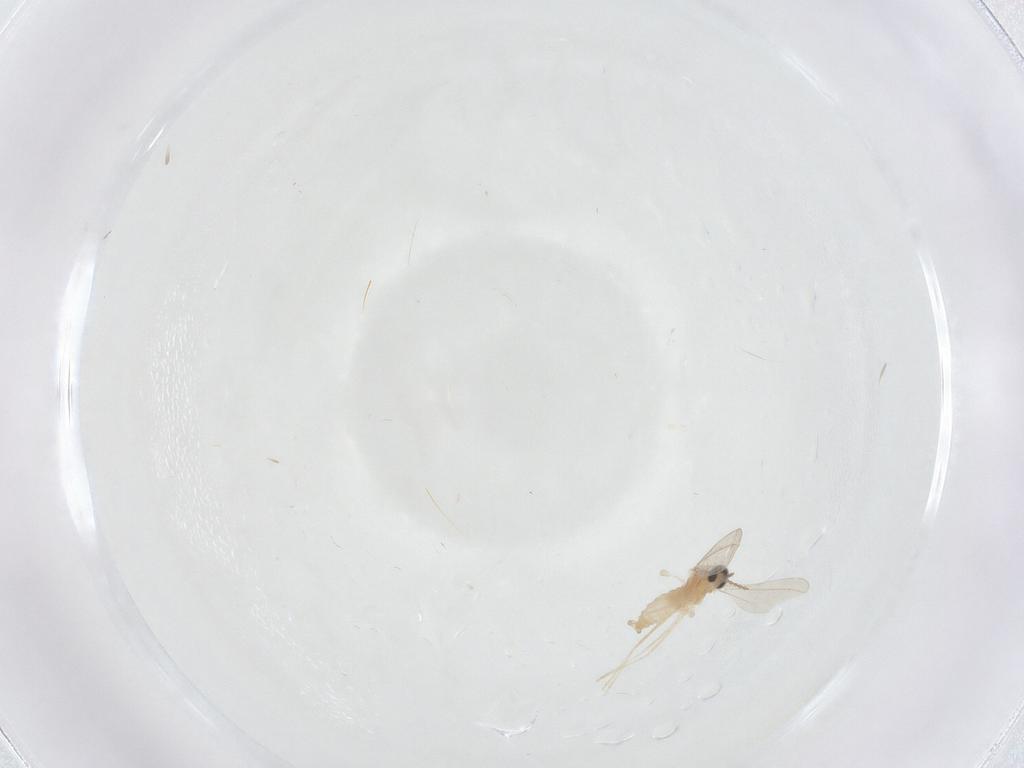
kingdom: Animalia
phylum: Arthropoda
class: Insecta
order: Diptera
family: Cecidomyiidae
